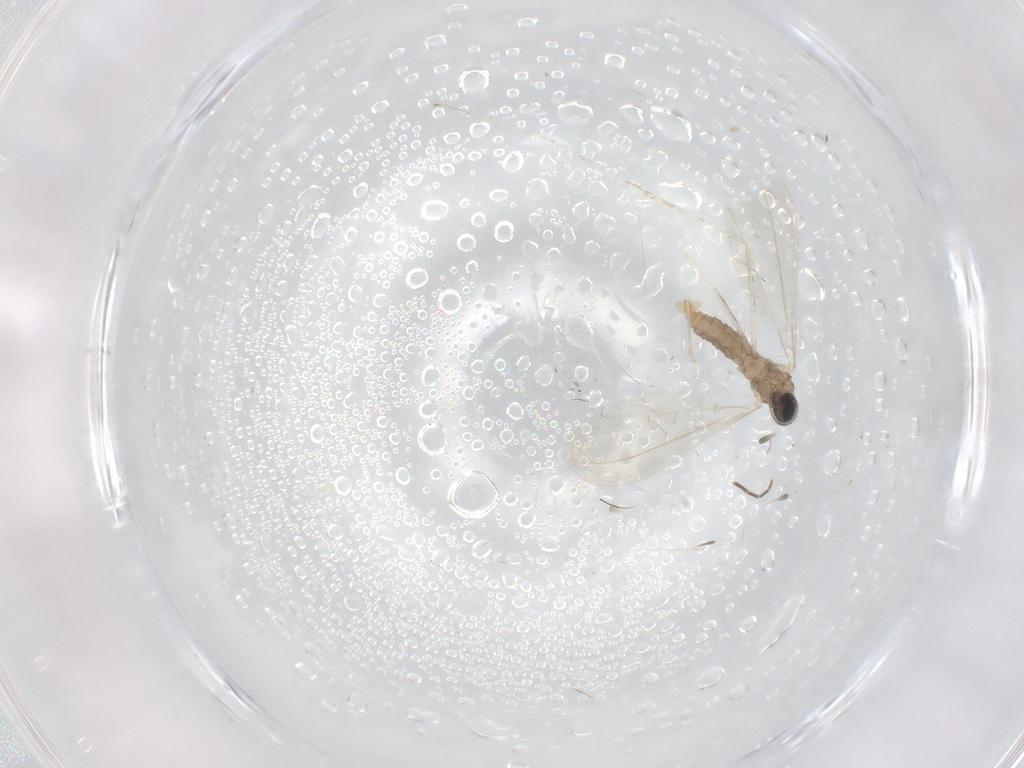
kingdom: Animalia
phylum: Arthropoda
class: Insecta
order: Diptera
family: Cecidomyiidae
